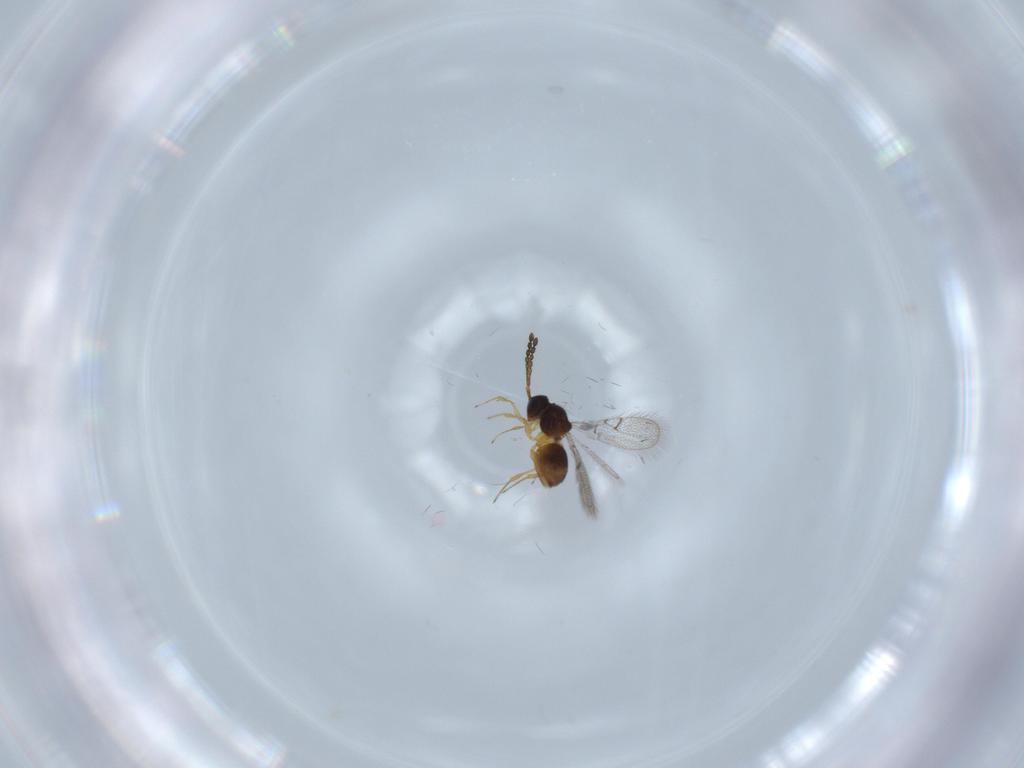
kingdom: Animalia
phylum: Arthropoda
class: Insecta
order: Hymenoptera
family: Figitidae
